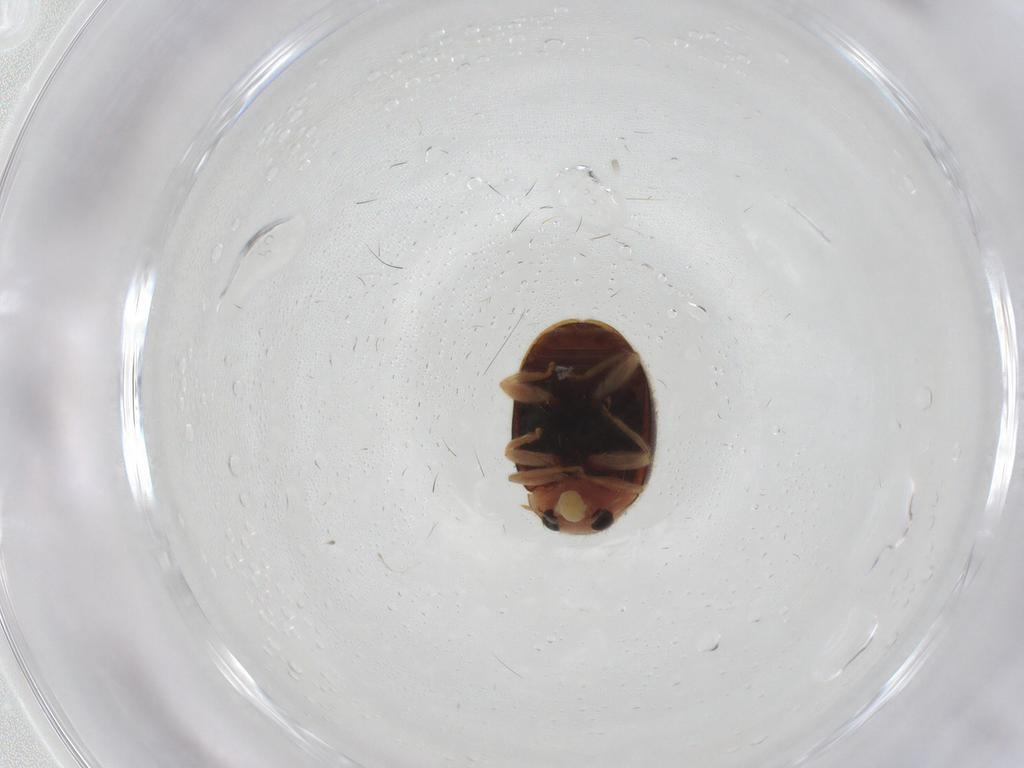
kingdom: Animalia
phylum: Arthropoda
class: Insecta
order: Coleoptera
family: Coccinellidae
